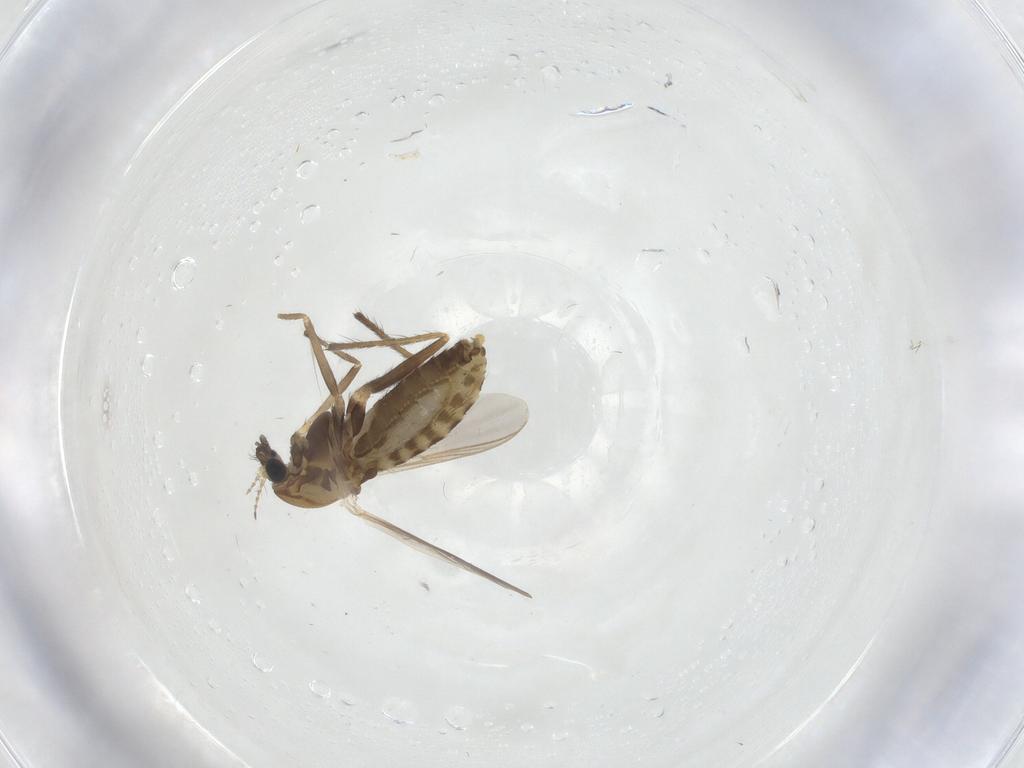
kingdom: Animalia
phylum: Arthropoda
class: Insecta
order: Diptera
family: Chironomidae
